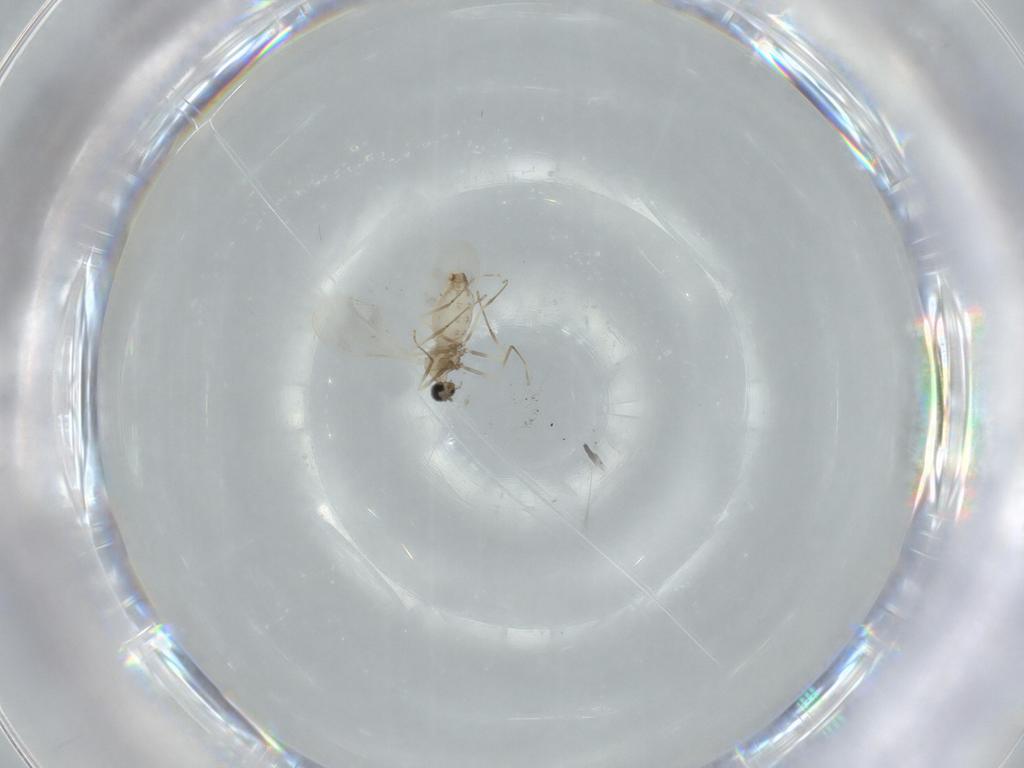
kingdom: Animalia
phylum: Arthropoda
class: Insecta
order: Diptera
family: Cecidomyiidae
